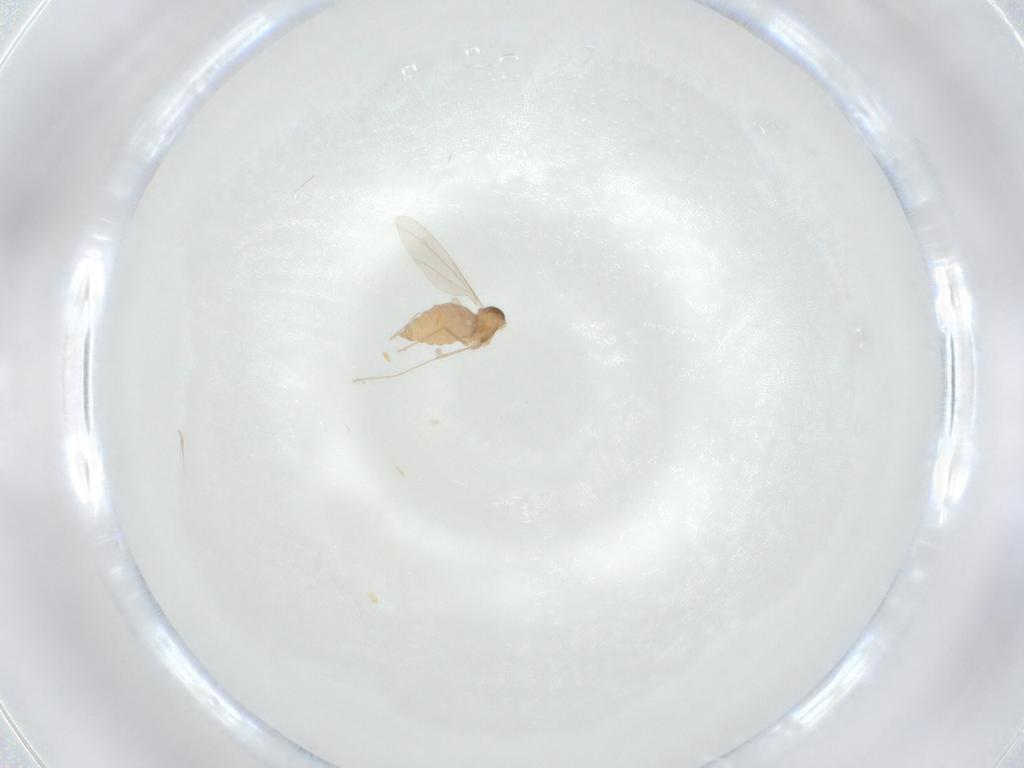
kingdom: Animalia
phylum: Arthropoda
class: Insecta
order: Diptera
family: Cecidomyiidae
